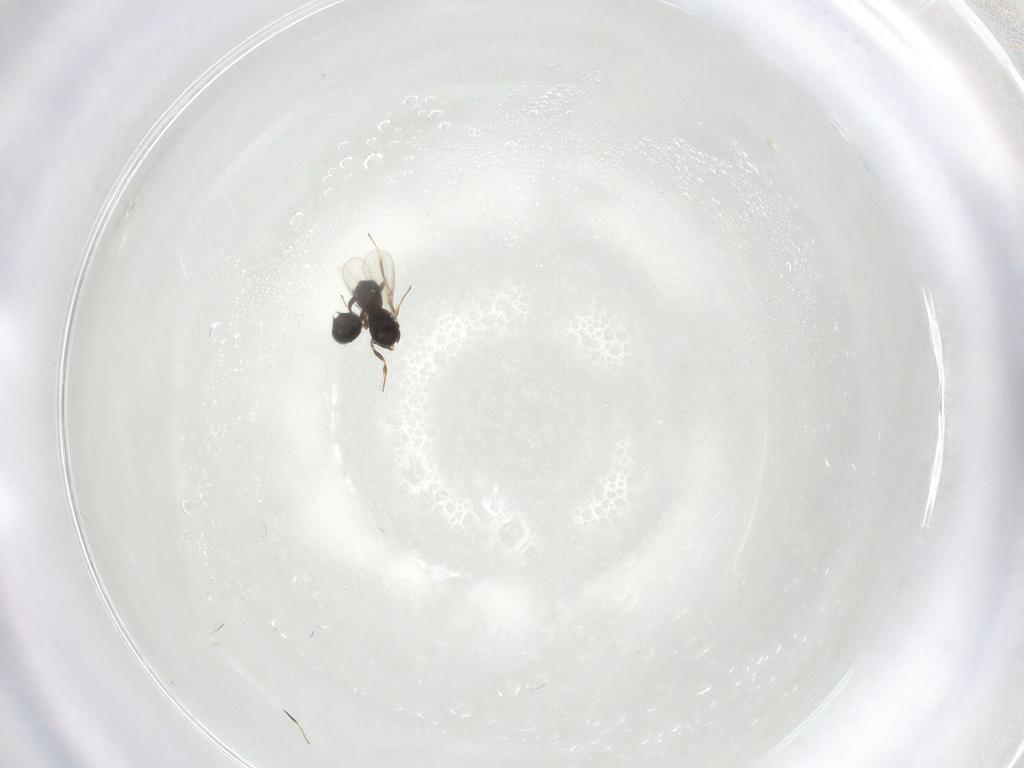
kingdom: Animalia
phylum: Arthropoda
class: Insecta
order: Hymenoptera
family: Scelionidae
